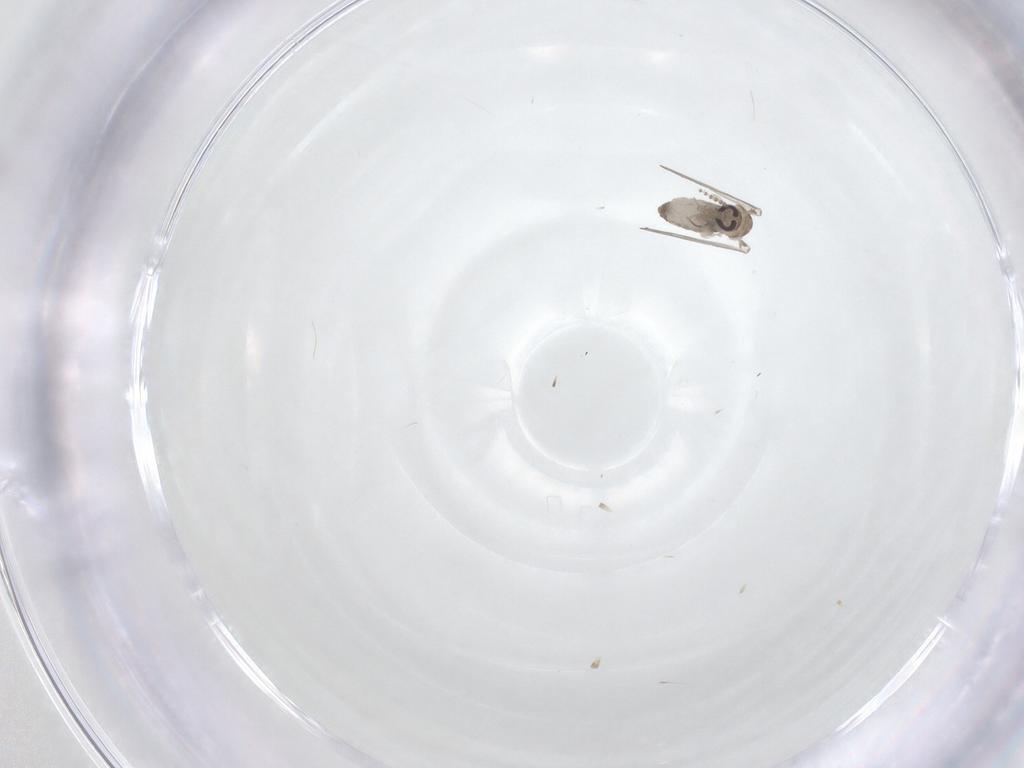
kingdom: Animalia
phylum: Arthropoda
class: Insecta
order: Diptera
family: Psychodidae
